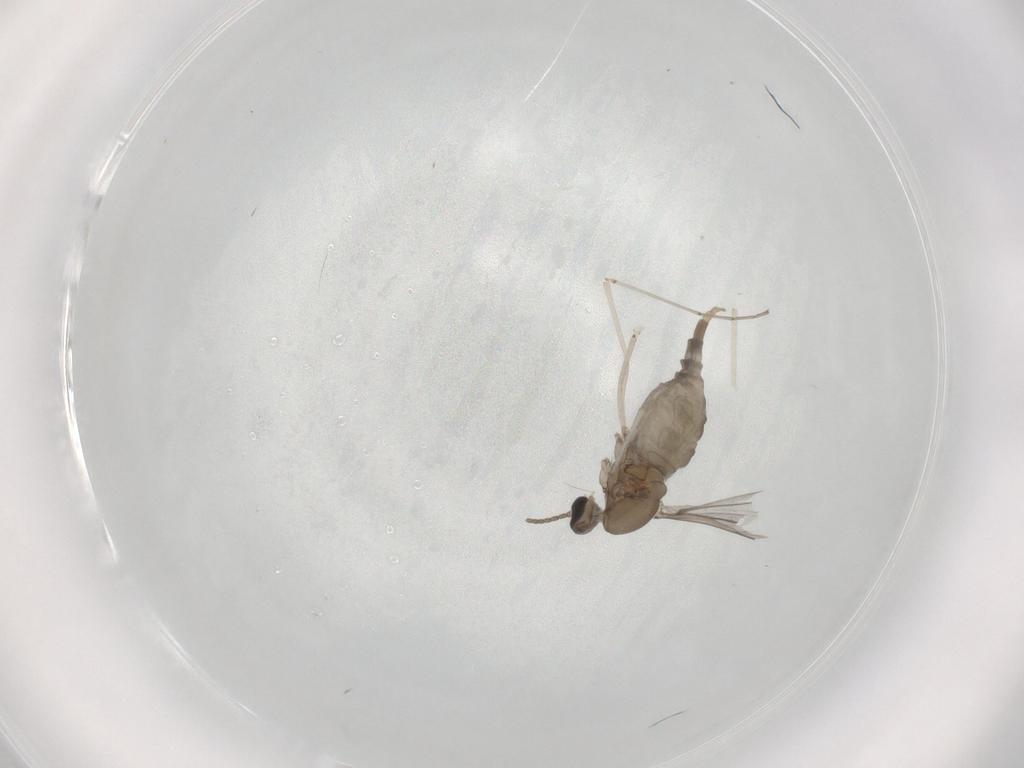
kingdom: Animalia
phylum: Arthropoda
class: Insecta
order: Diptera
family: Cecidomyiidae
